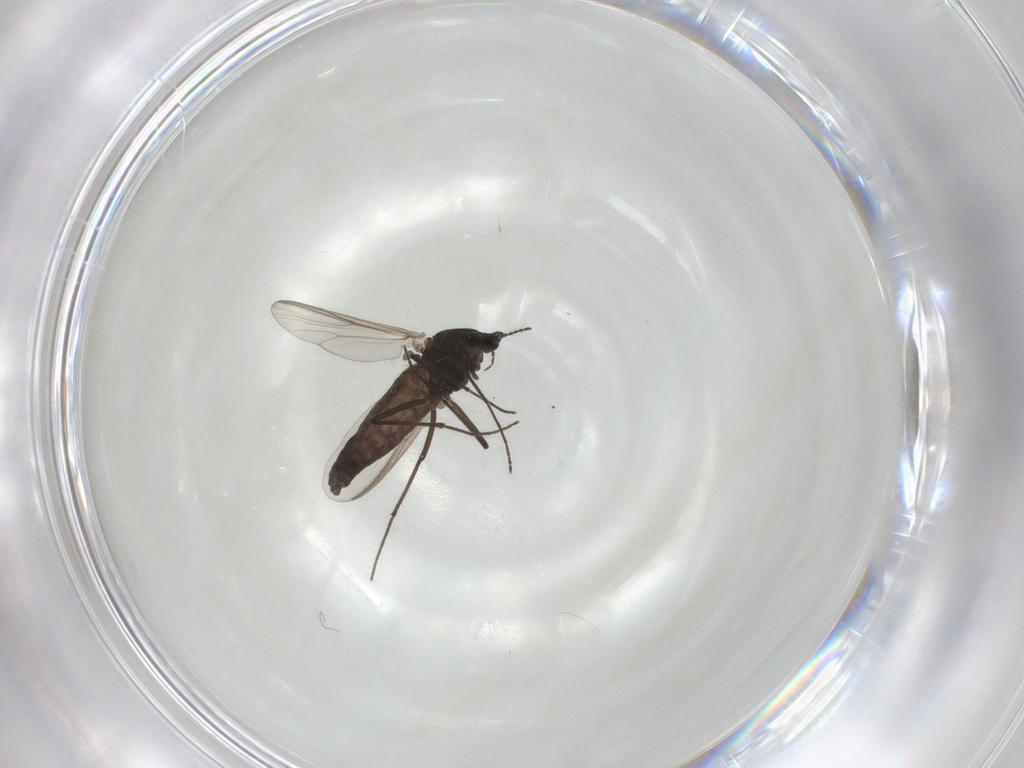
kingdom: Animalia
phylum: Arthropoda
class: Insecta
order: Diptera
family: Chironomidae
